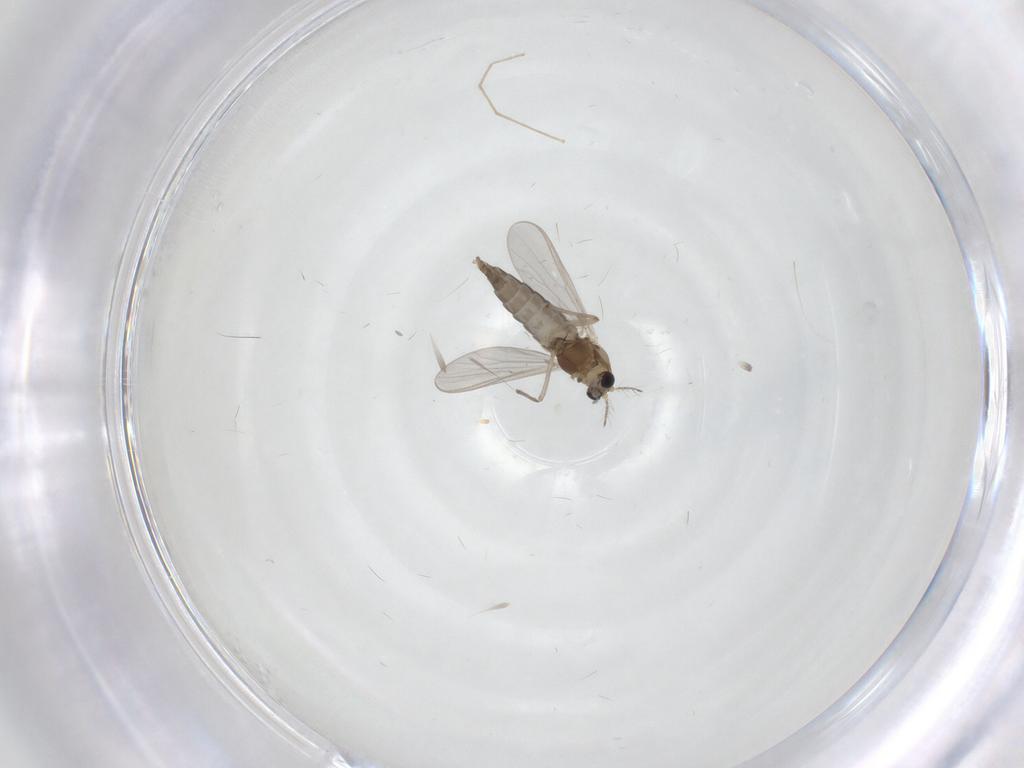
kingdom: Animalia
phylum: Arthropoda
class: Insecta
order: Diptera
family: Chironomidae
